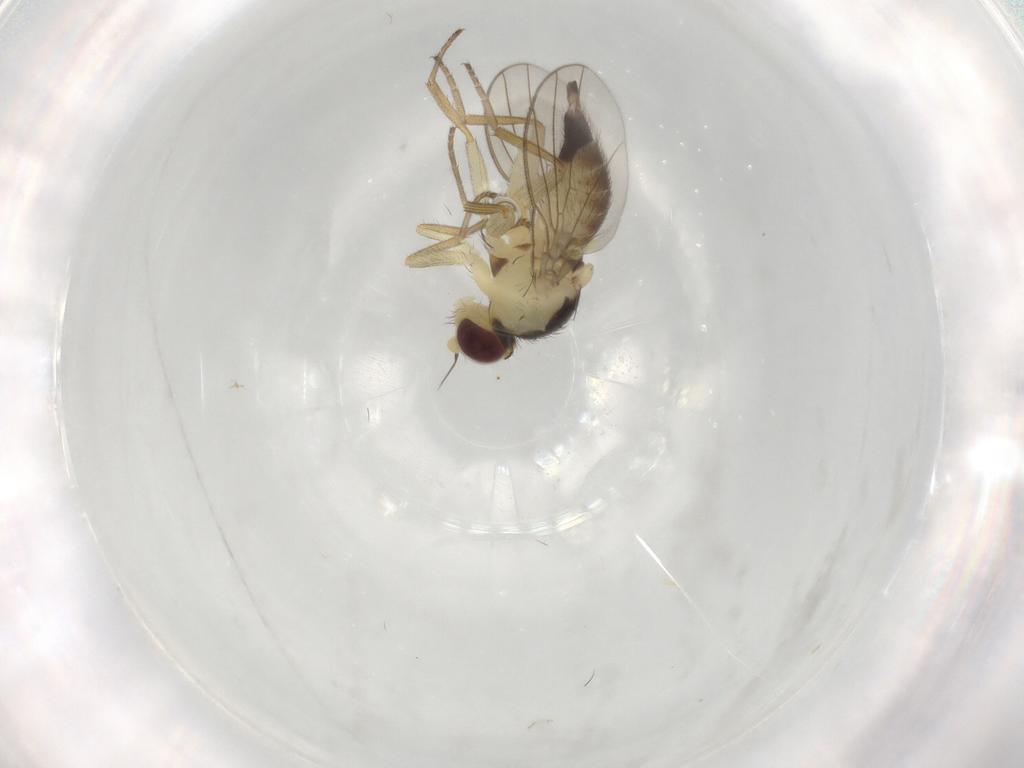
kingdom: Animalia
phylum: Arthropoda
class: Insecta
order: Diptera
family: Agromyzidae
